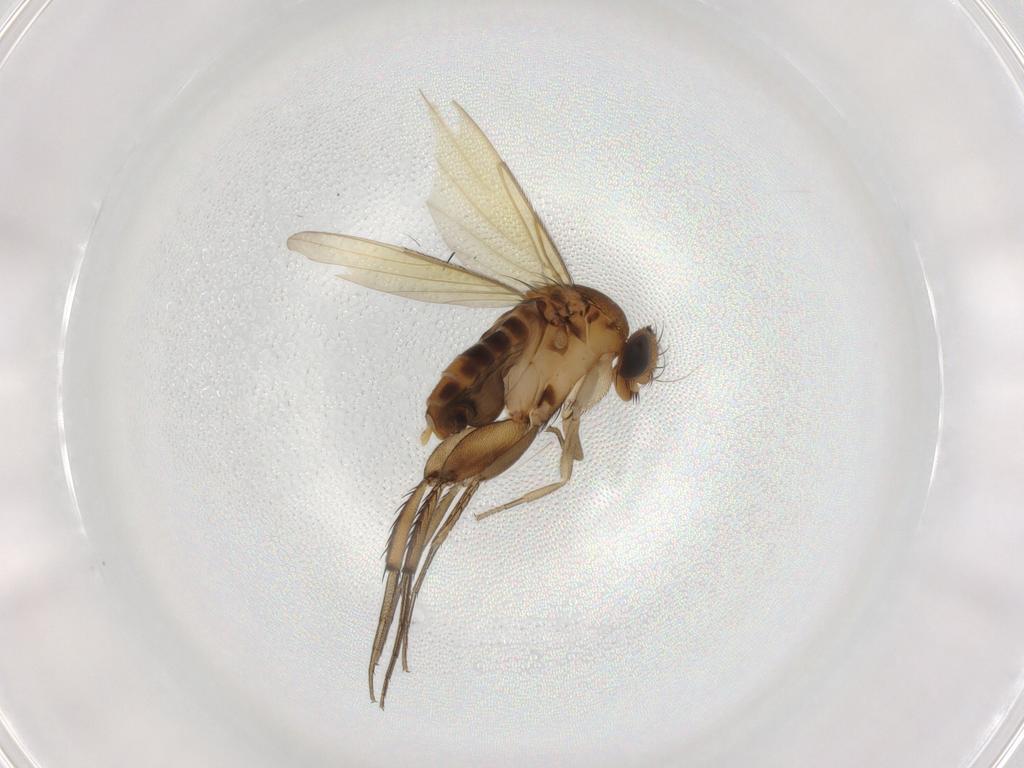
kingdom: Animalia
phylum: Arthropoda
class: Insecta
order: Diptera
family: Phoridae
